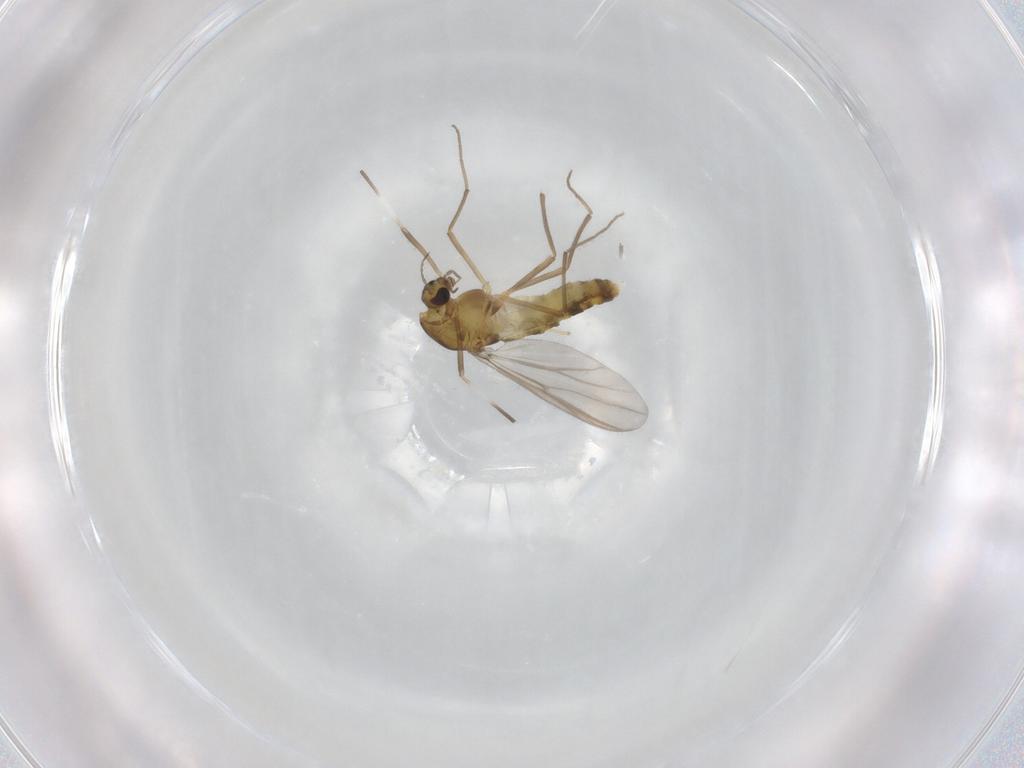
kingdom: Animalia
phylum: Arthropoda
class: Insecta
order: Diptera
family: Chironomidae
